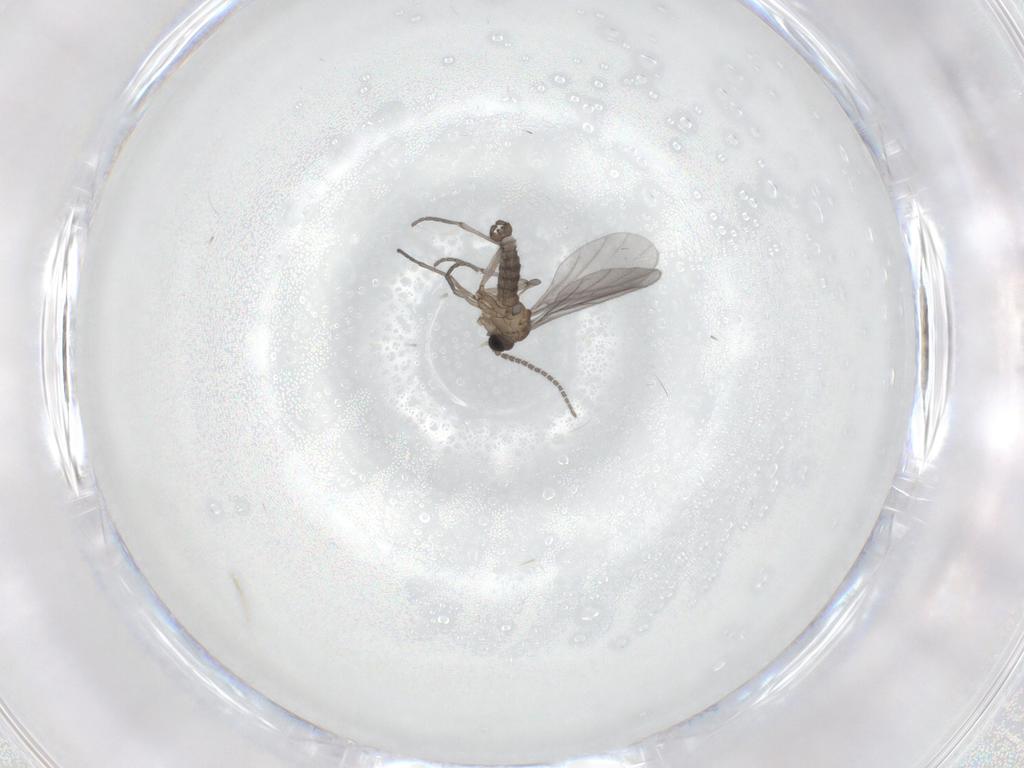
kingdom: Animalia
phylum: Arthropoda
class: Insecta
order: Diptera
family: Sciaridae
